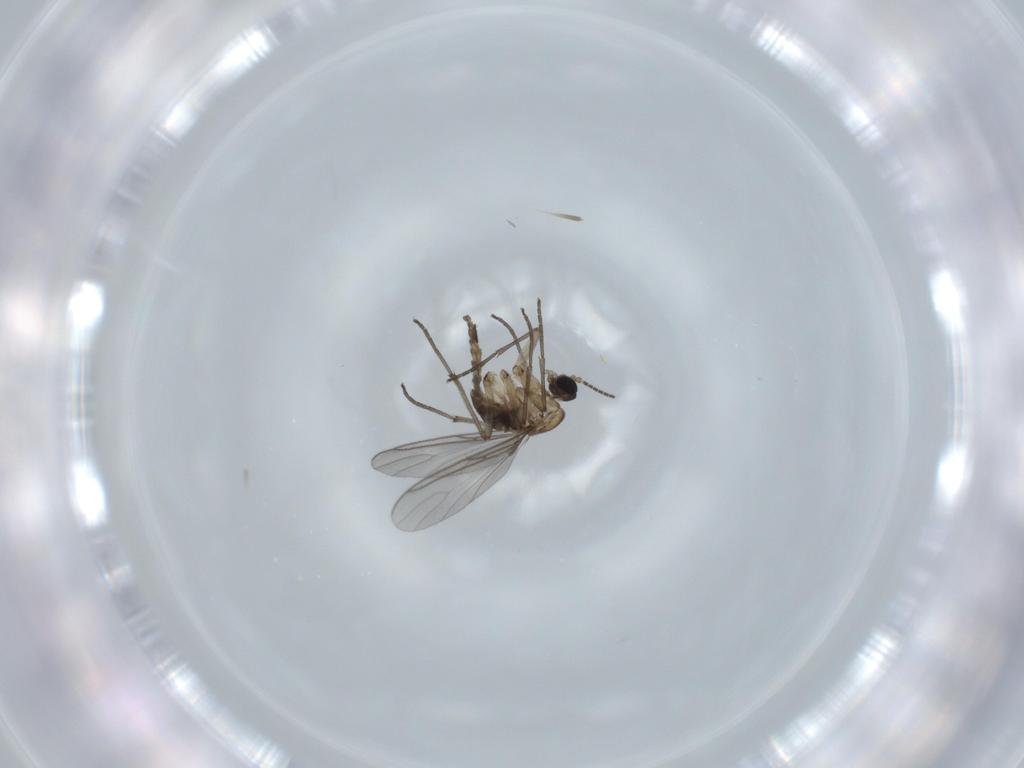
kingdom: Animalia
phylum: Arthropoda
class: Insecta
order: Diptera
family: Sciaridae
